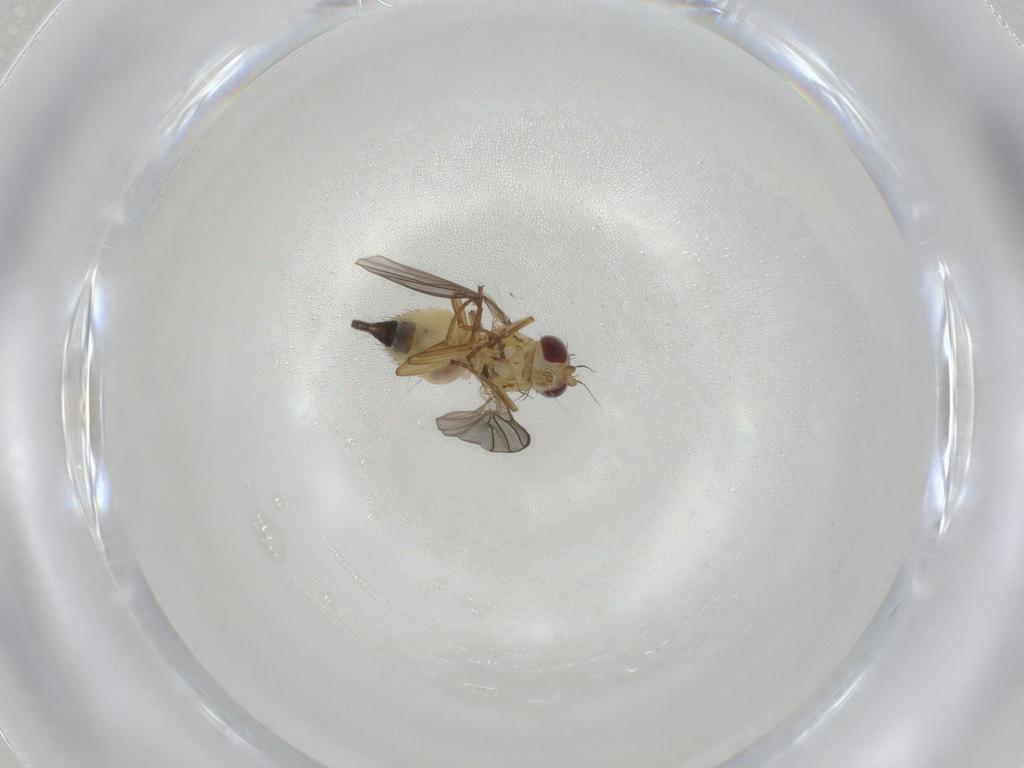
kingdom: Animalia
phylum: Arthropoda
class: Insecta
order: Diptera
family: Agromyzidae
